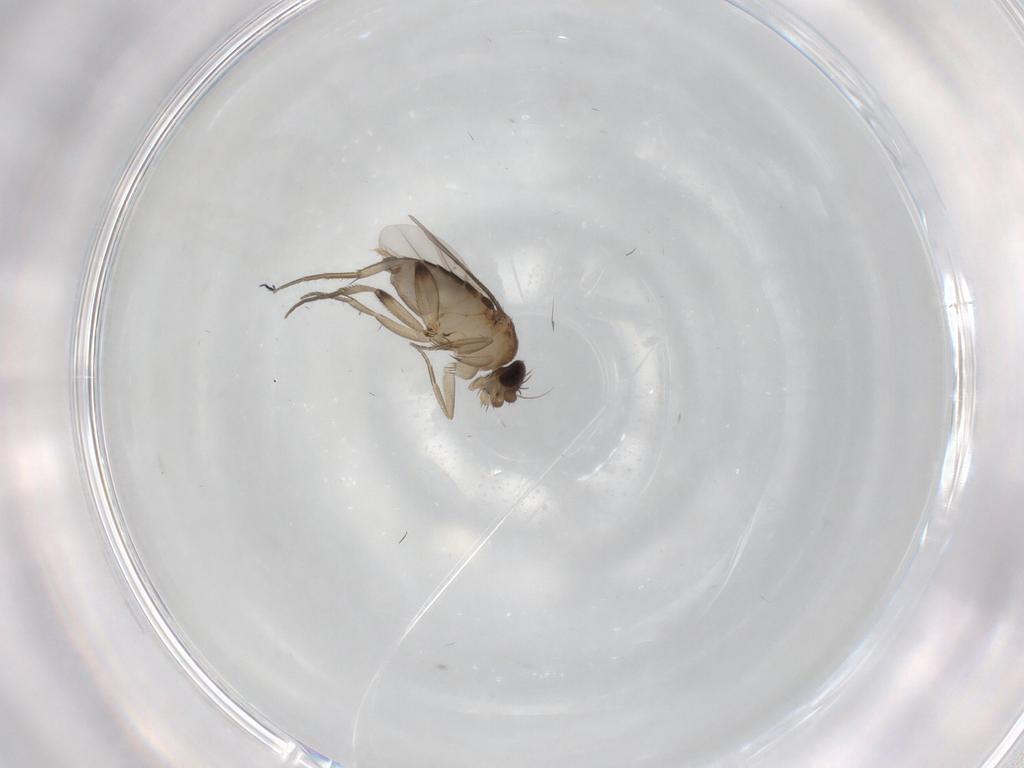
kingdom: Animalia
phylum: Arthropoda
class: Insecta
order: Diptera
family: Phoridae
